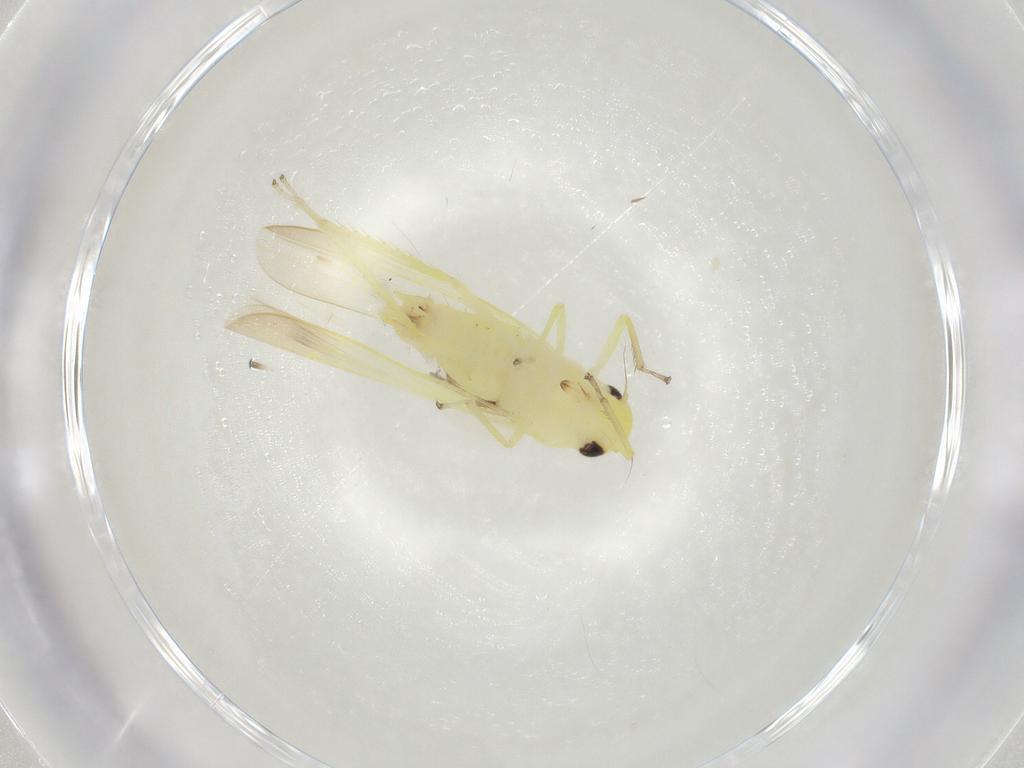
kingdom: Animalia
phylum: Arthropoda
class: Insecta
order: Hemiptera
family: Cicadellidae
